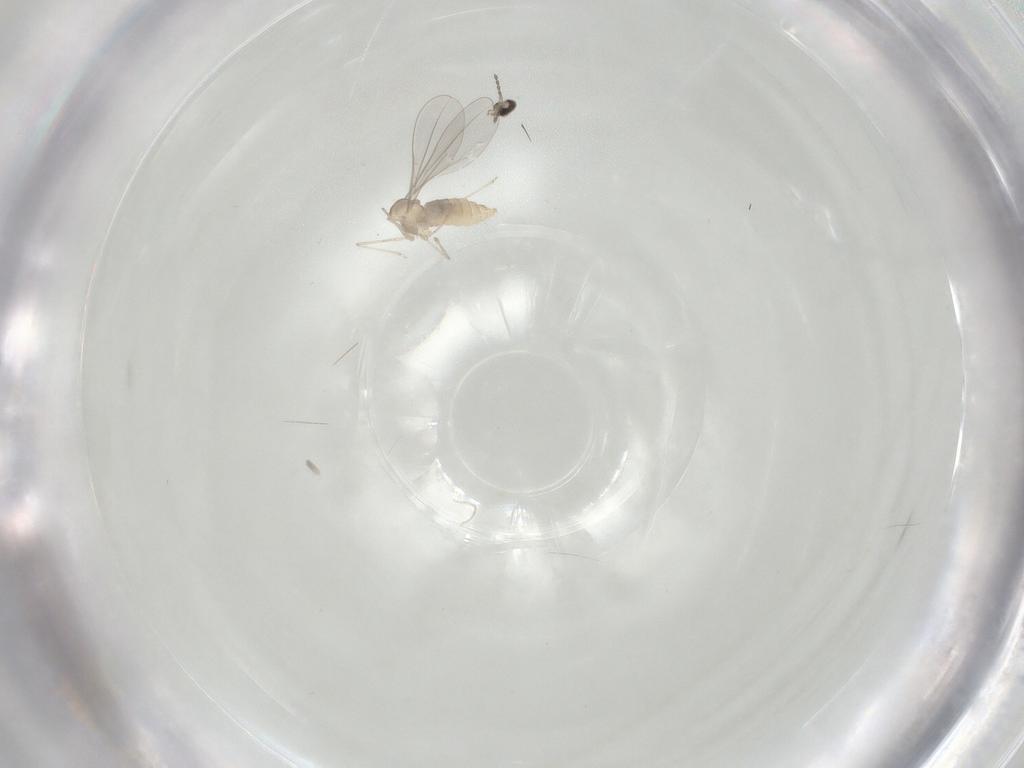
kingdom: Animalia
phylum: Arthropoda
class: Insecta
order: Diptera
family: Cecidomyiidae
